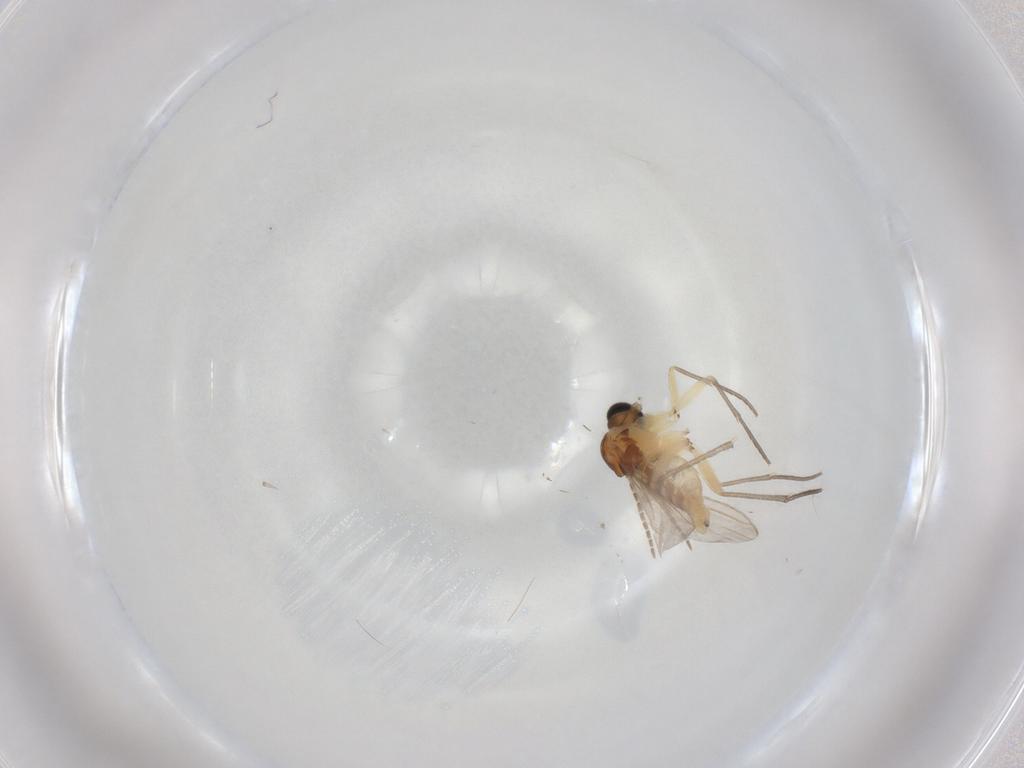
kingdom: Animalia
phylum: Arthropoda
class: Insecta
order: Diptera
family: Sciaridae
